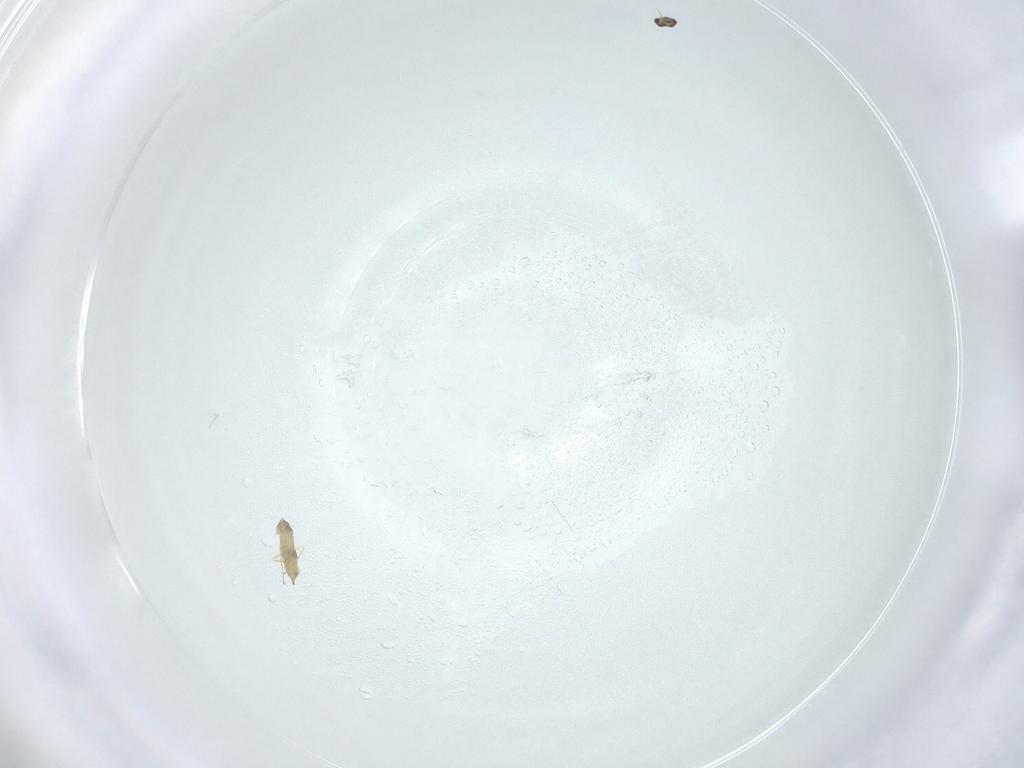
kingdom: Animalia
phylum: Arthropoda
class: Insecta
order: Hymenoptera
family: Mymaridae
